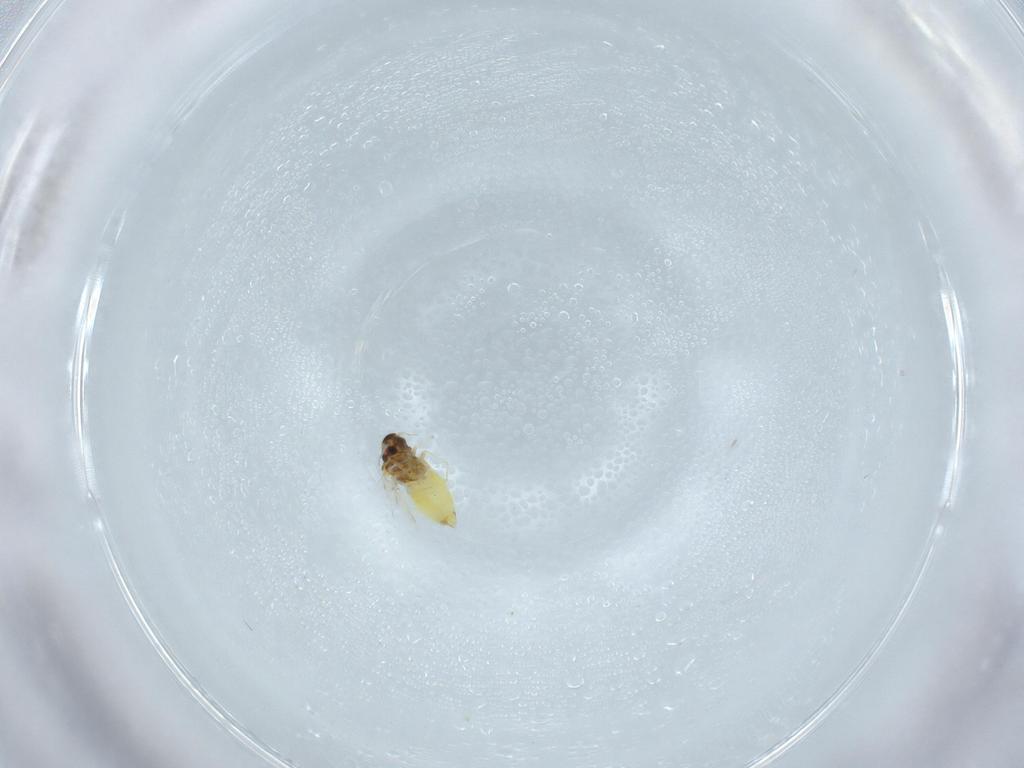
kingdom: Animalia
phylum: Arthropoda
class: Insecta
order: Hemiptera
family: Aleyrodidae
